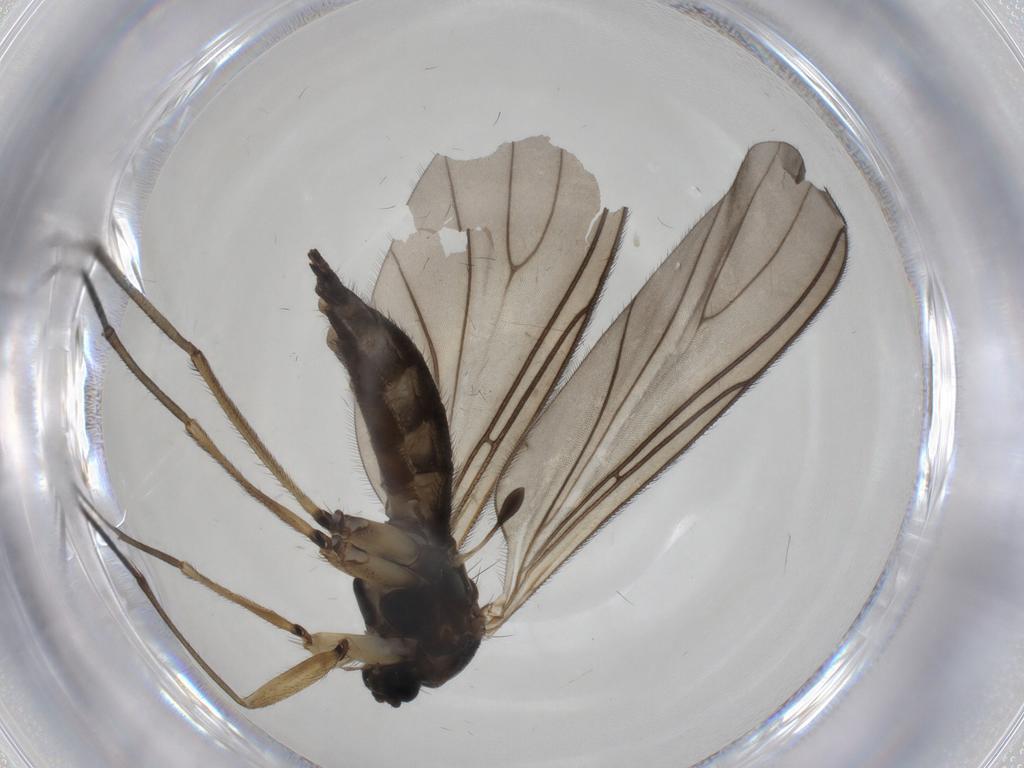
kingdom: Animalia
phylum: Arthropoda
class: Insecta
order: Diptera
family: Sciaridae
